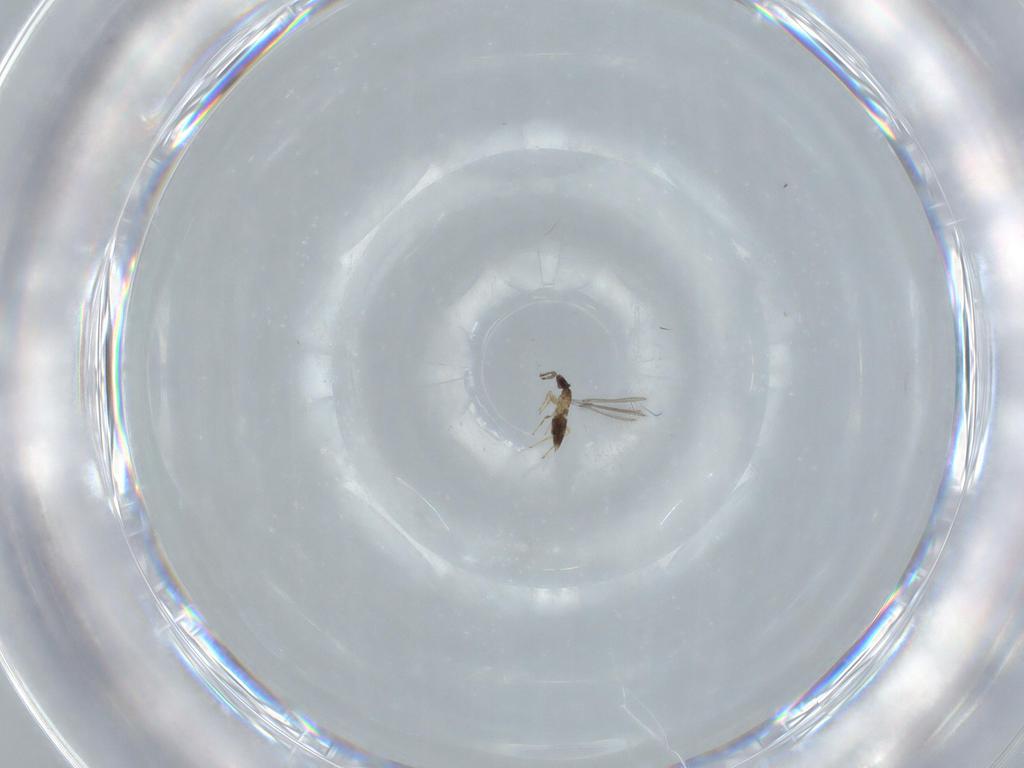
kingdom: Animalia
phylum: Arthropoda
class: Insecta
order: Hymenoptera
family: Mymaridae
